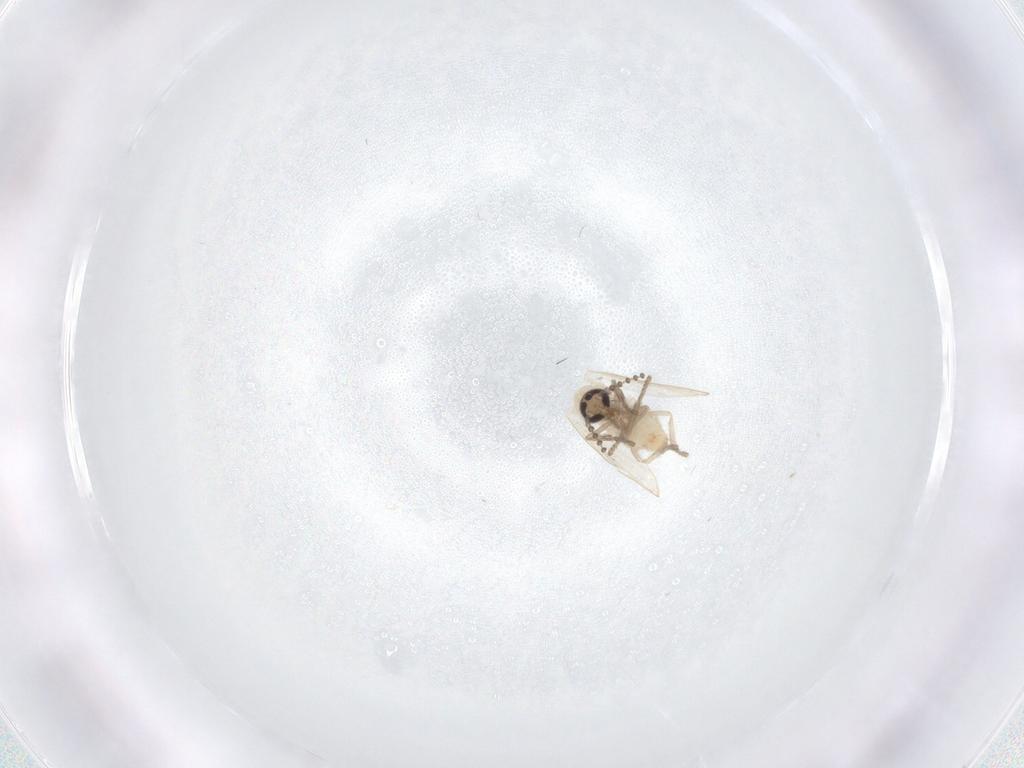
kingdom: Animalia
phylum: Arthropoda
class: Insecta
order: Diptera
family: Psychodidae
